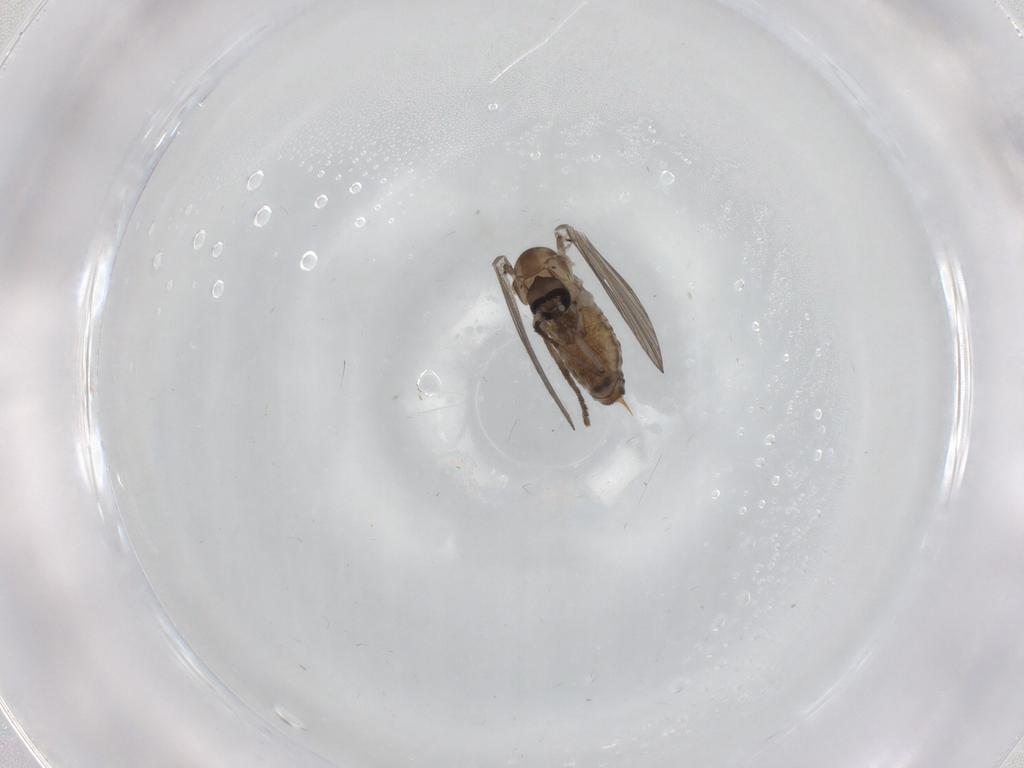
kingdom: Animalia
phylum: Arthropoda
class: Insecta
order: Diptera
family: Psychodidae
